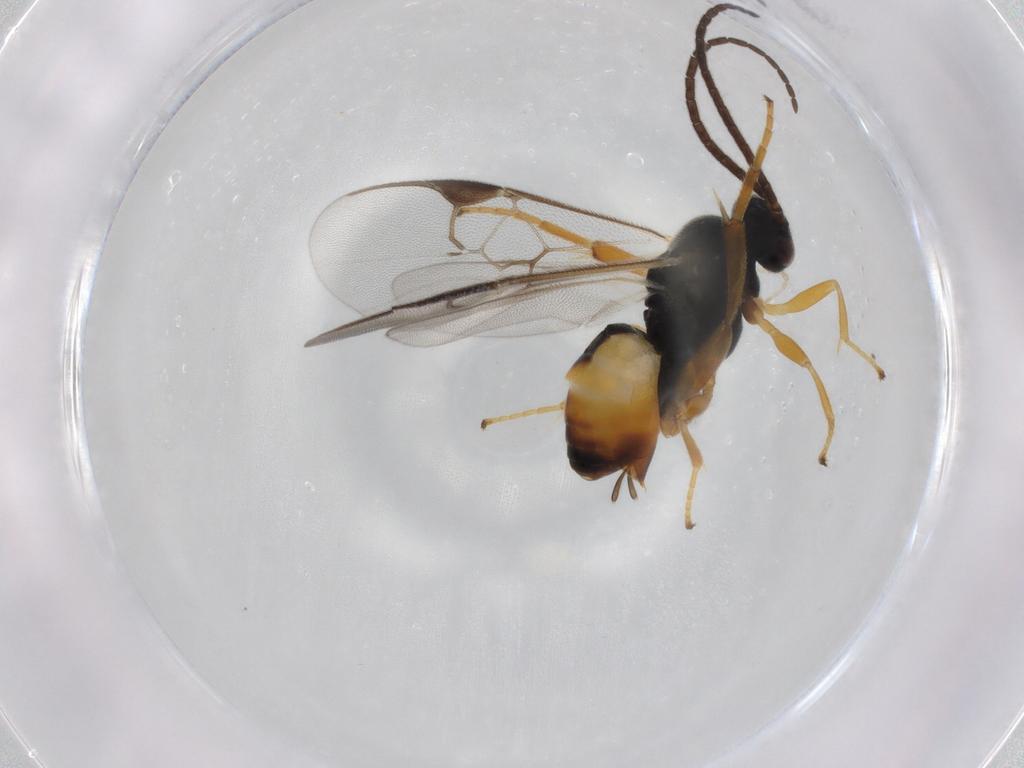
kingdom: Animalia
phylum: Arthropoda
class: Insecta
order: Hymenoptera
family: Braconidae
